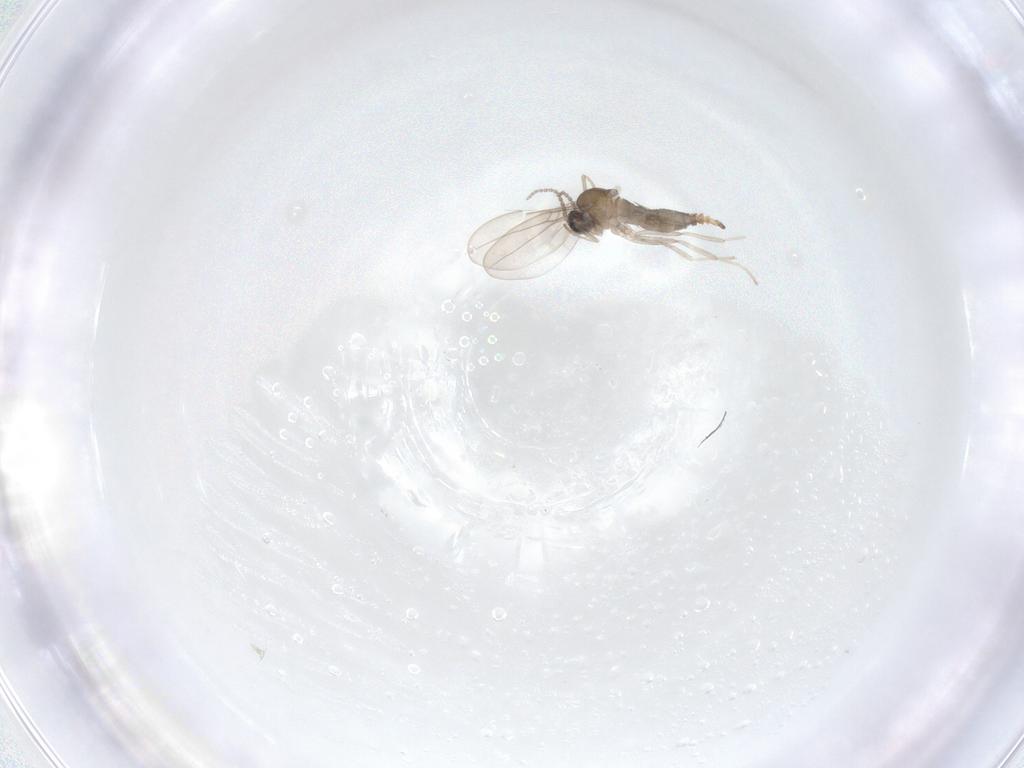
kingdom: Animalia
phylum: Arthropoda
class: Insecta
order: Diptera
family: Cecidomyiidae
